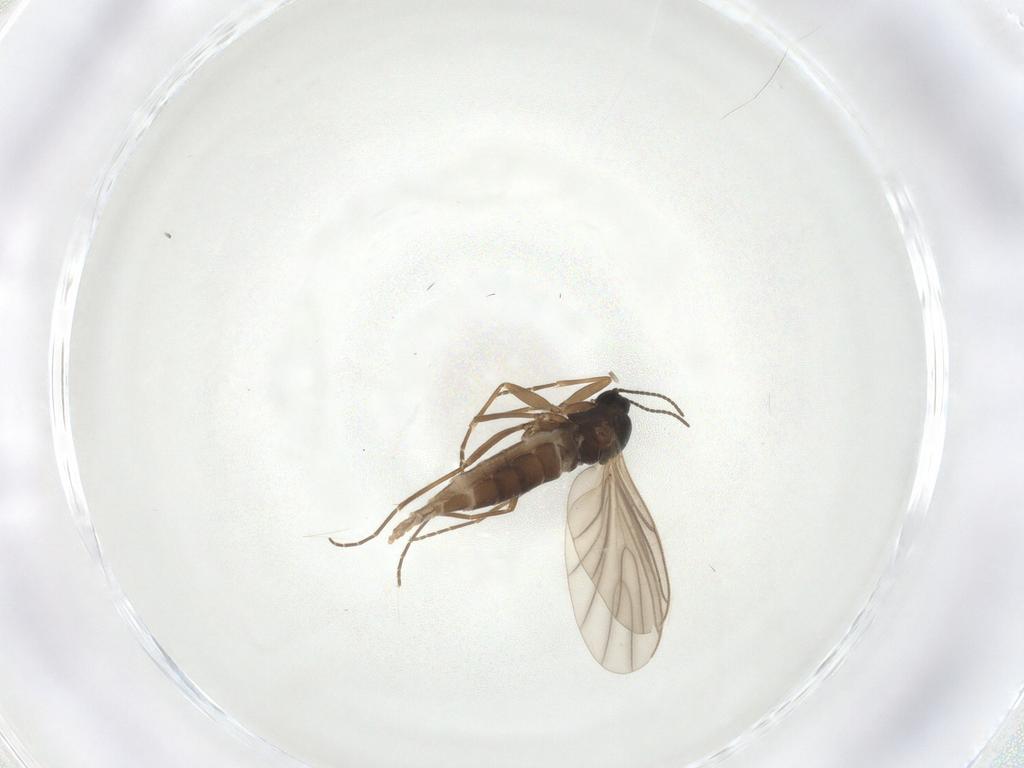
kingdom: Animalia
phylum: Arthropoda
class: Insecta
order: Diptera
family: Sciaridae
